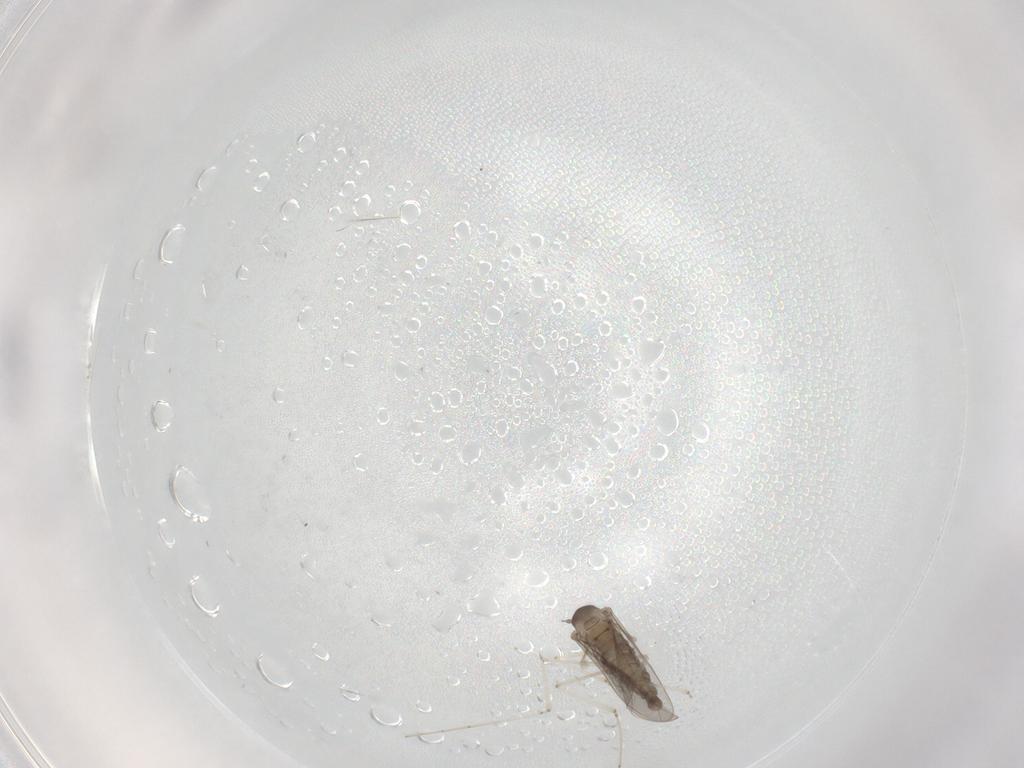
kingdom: Animalia
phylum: Arthropoda
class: Insecta
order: Diptera
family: Cecidomyiidae
